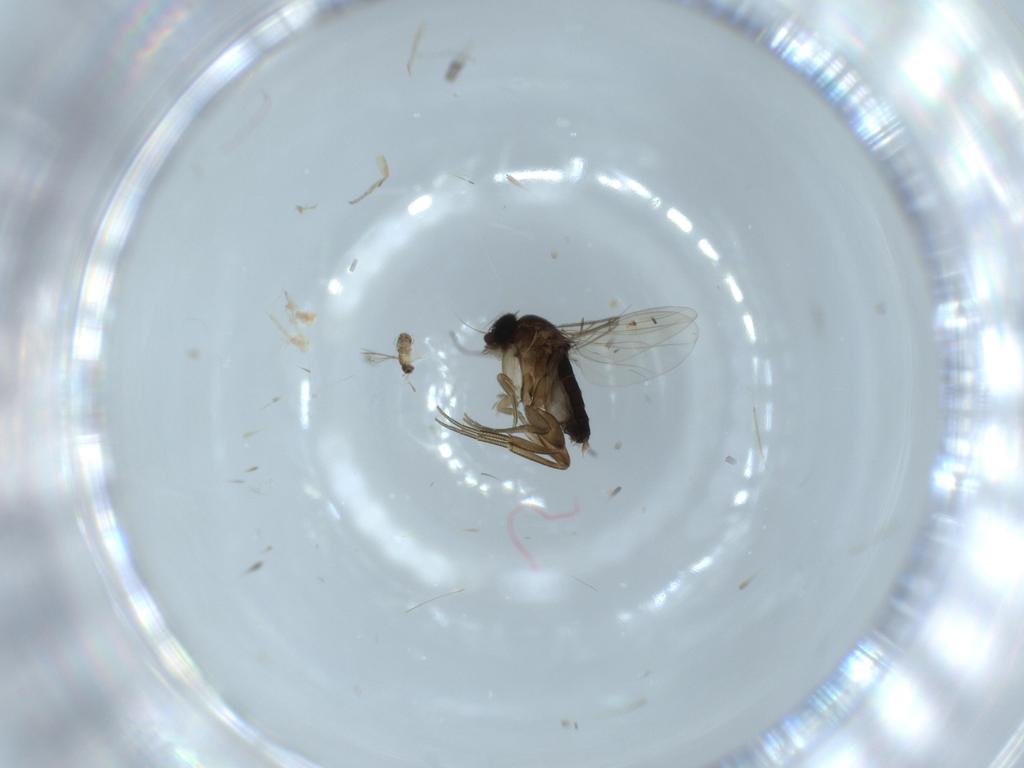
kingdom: Animalia
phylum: Arthropoda
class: Insecta
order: Diptera
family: Phoridae
